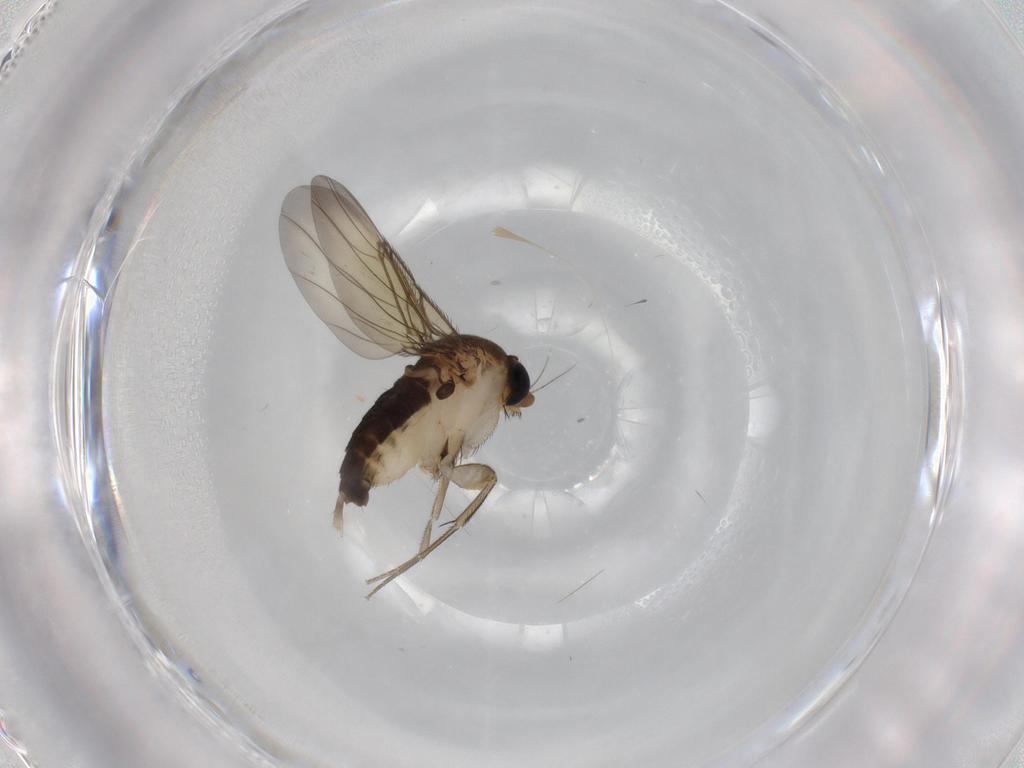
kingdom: Animalia
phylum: Arthropoda
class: Insecta
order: Diptera
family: Phoridae
